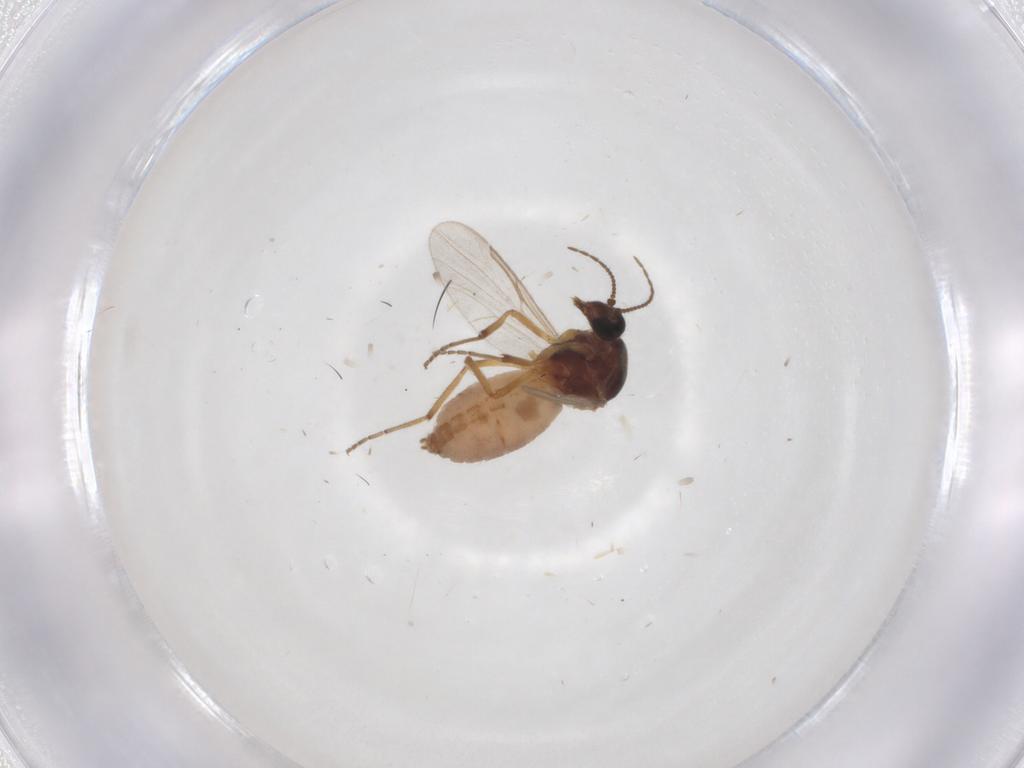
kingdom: Animalia
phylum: Arthropoda
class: Insecta
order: Diptera
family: Ceratopogonidae
